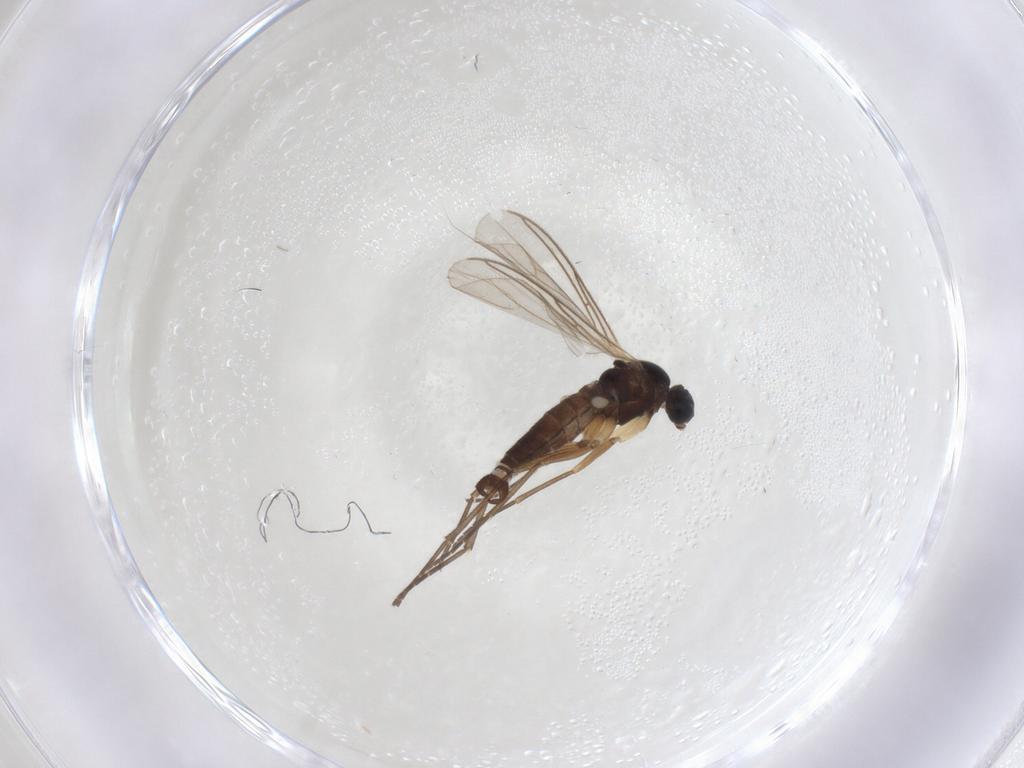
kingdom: Animalia
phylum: Arthropoda
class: Insecta
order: Diptera
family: Sciaridae
